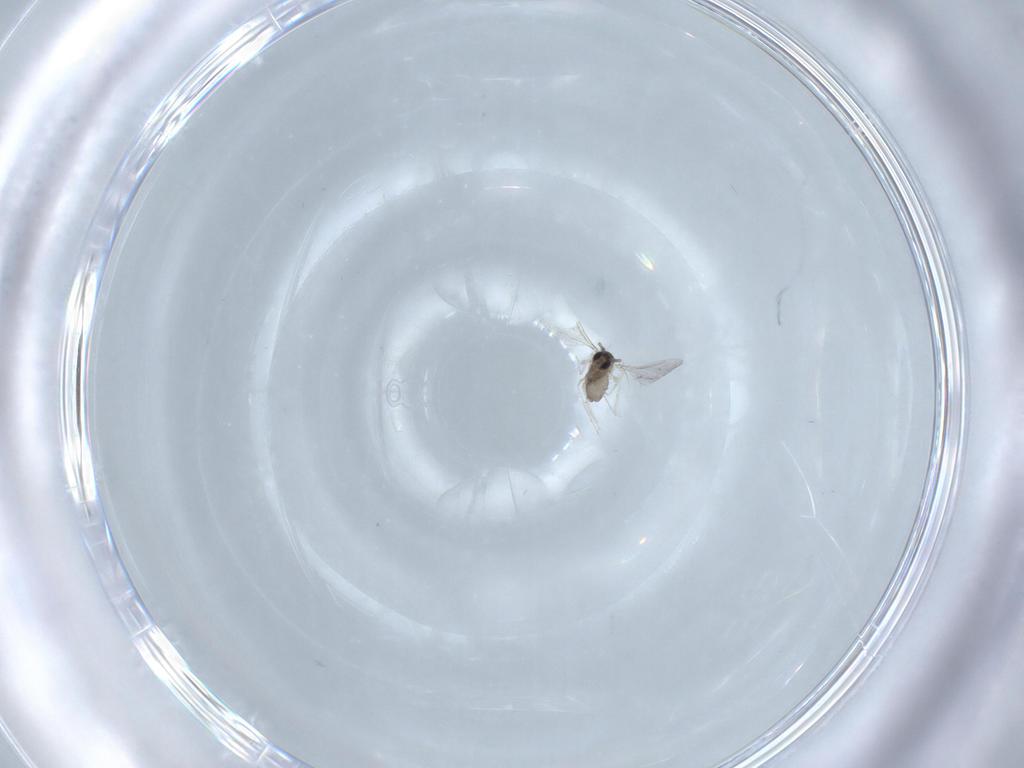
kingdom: Animalia
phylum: Arthropoda
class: Insecta
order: Diptera
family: Cecidomyiidae
